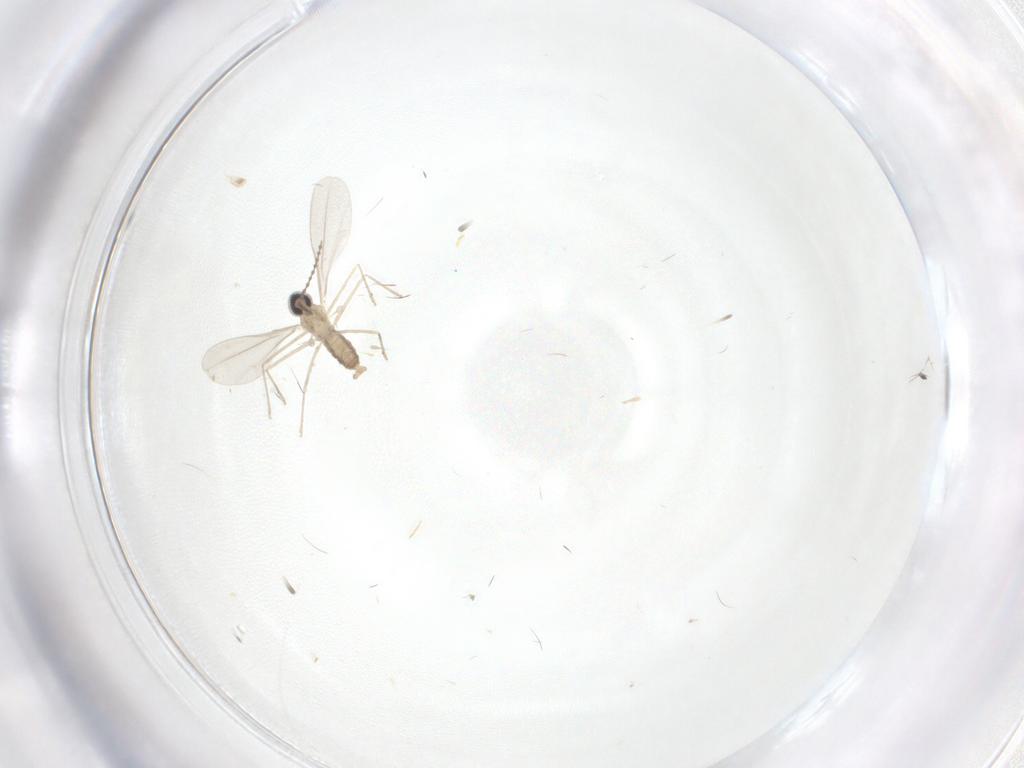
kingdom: Animalia
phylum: Arthropoda
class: Insecta
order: Diptera
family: Cecidomyiidae
